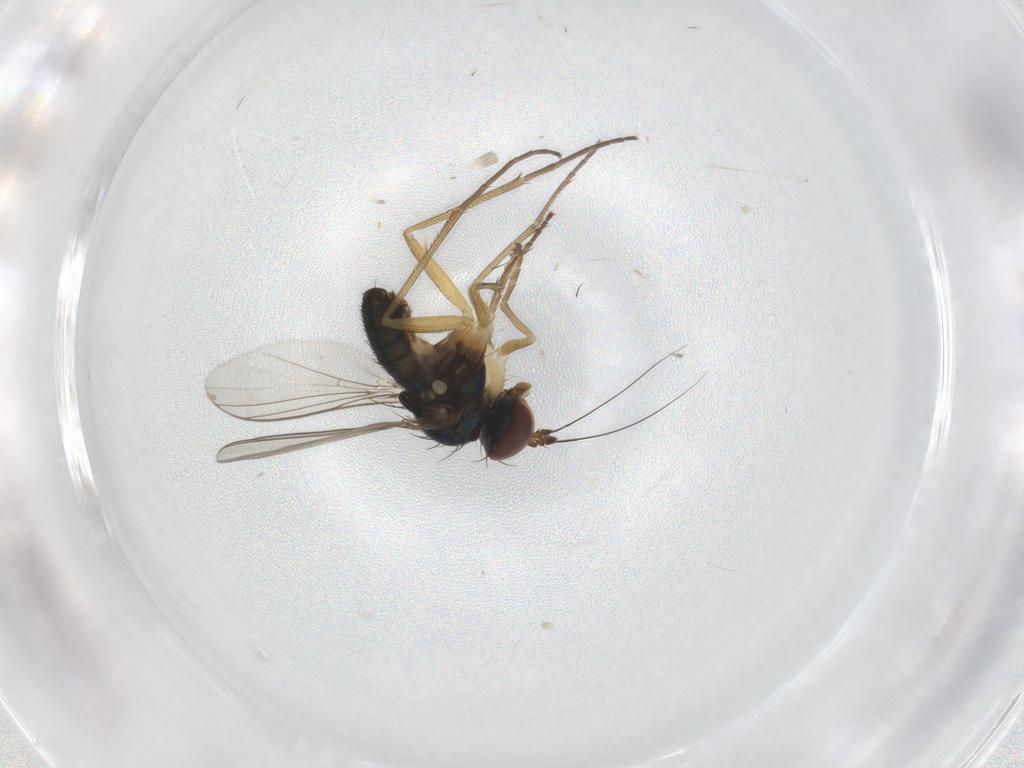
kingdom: Animalia
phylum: Arthropoda
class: Insecta
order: Diptera
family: Dolichopodidae
